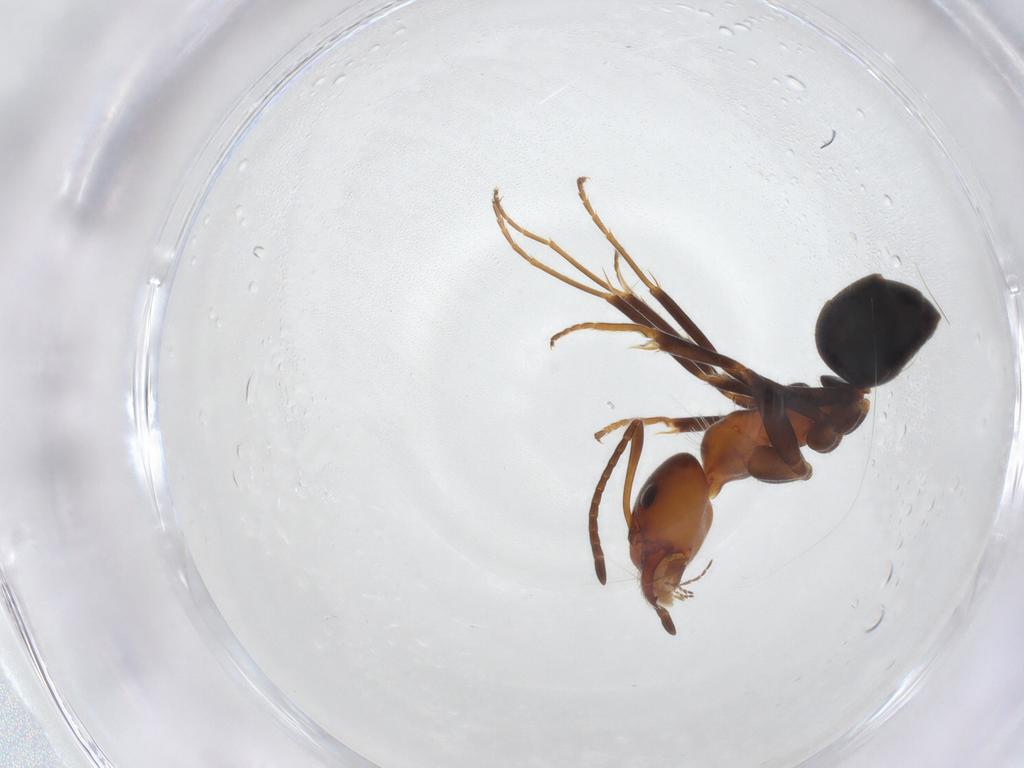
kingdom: Animalia
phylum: Arthropoda
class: Insecta
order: Hymenoptera
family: Formicidae
